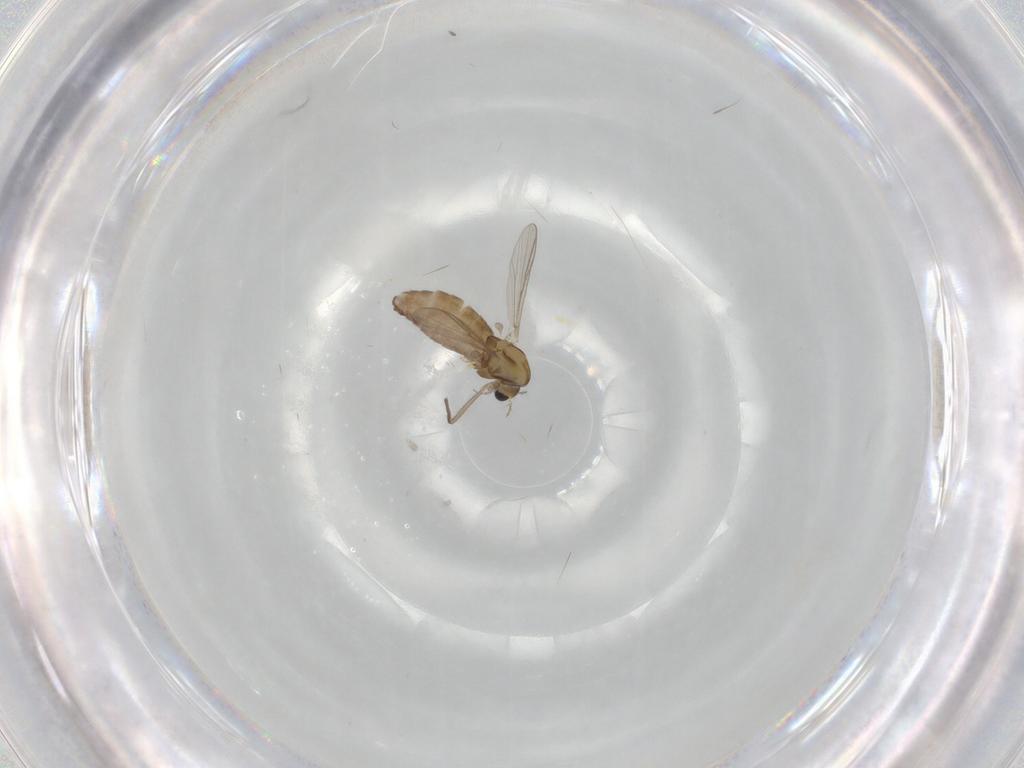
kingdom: Animalia
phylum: Arthropoda
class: Insecta
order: Diptera
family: Chironomidae
